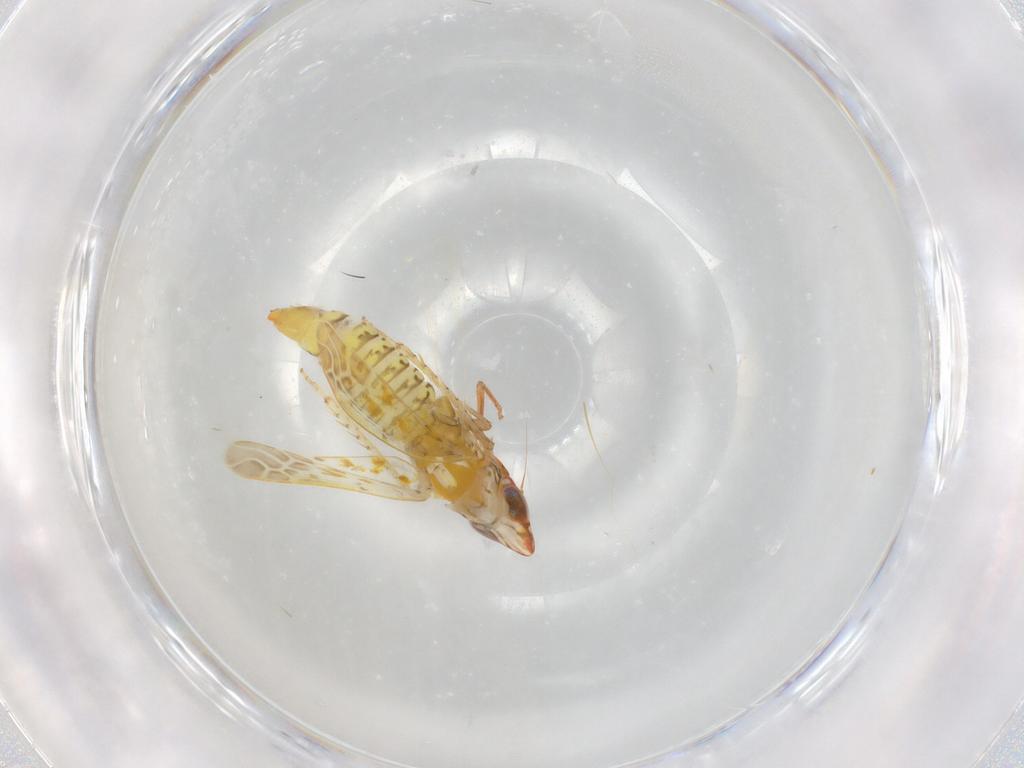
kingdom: Animalia
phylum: Arthropoda
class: Insecta
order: Hemiptera
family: Cicadellidae
